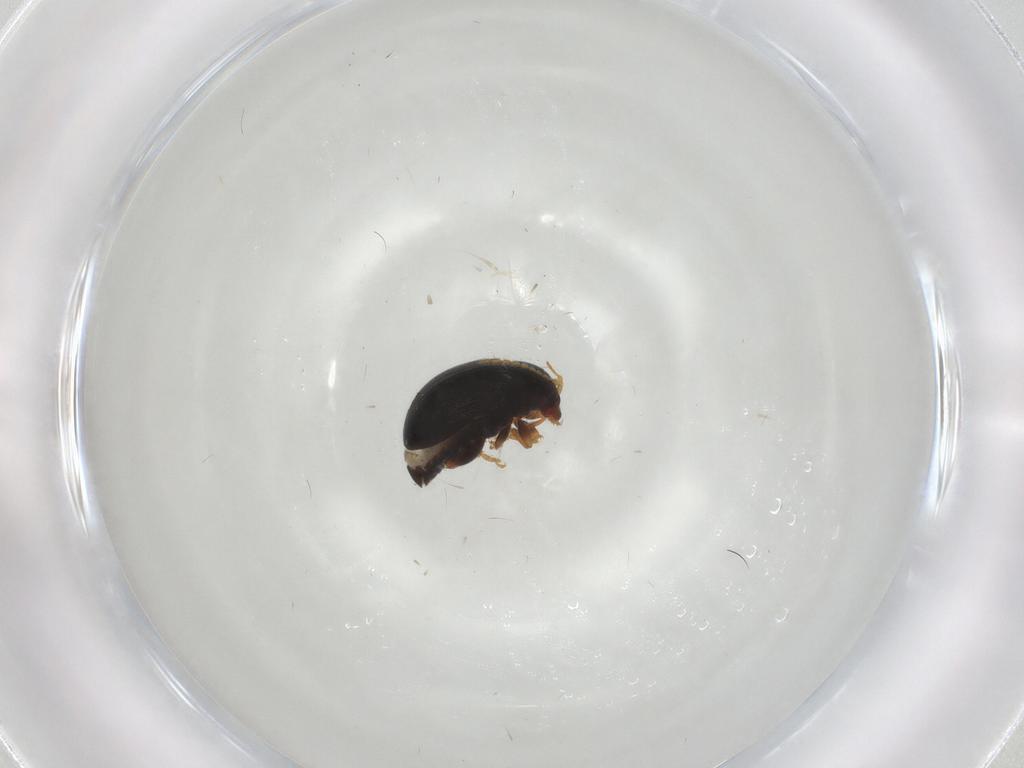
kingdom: Animalia
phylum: Arthropoda
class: Insecta
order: Coleoptera
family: Chrysomelidae
